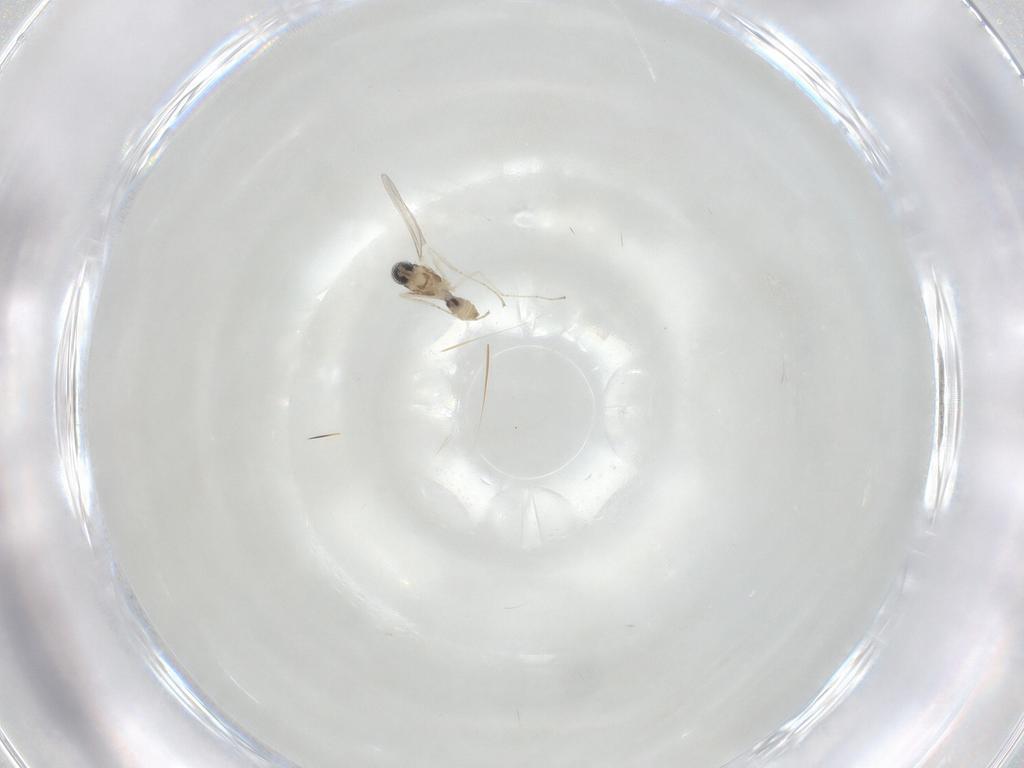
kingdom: Animalia
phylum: Arthropoda
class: Insecta
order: Diptera
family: Cecidomyiidae
